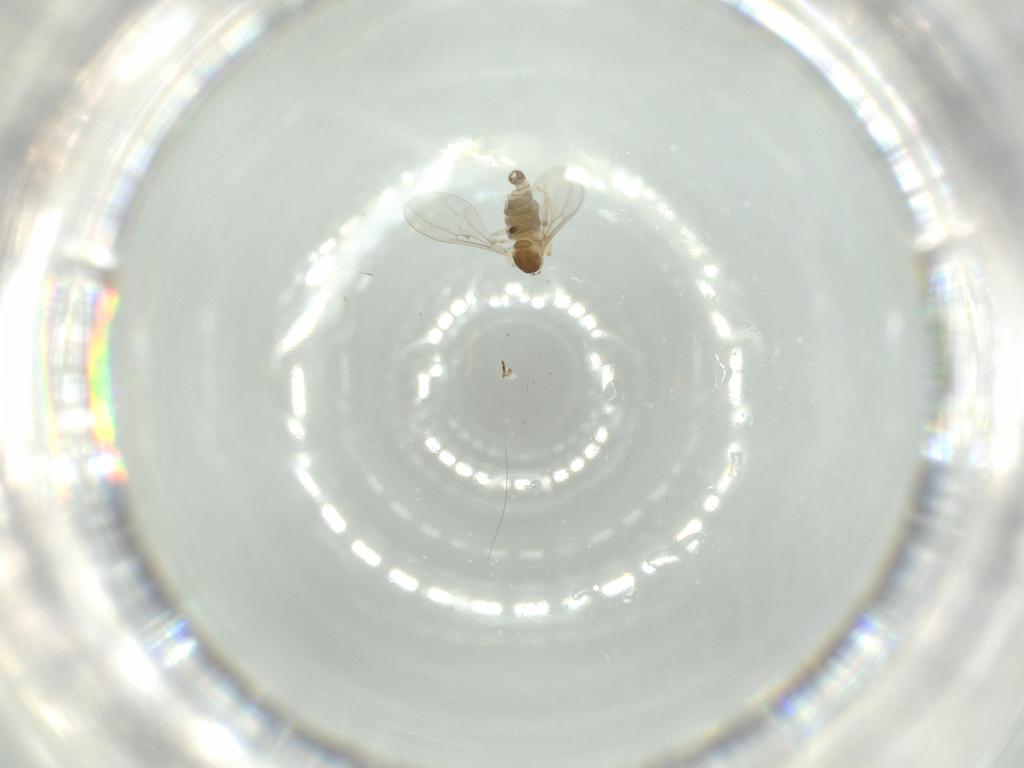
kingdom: Animalia
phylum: Arthropoda
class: Insecta
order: Diptera
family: Cecidomyiidae
